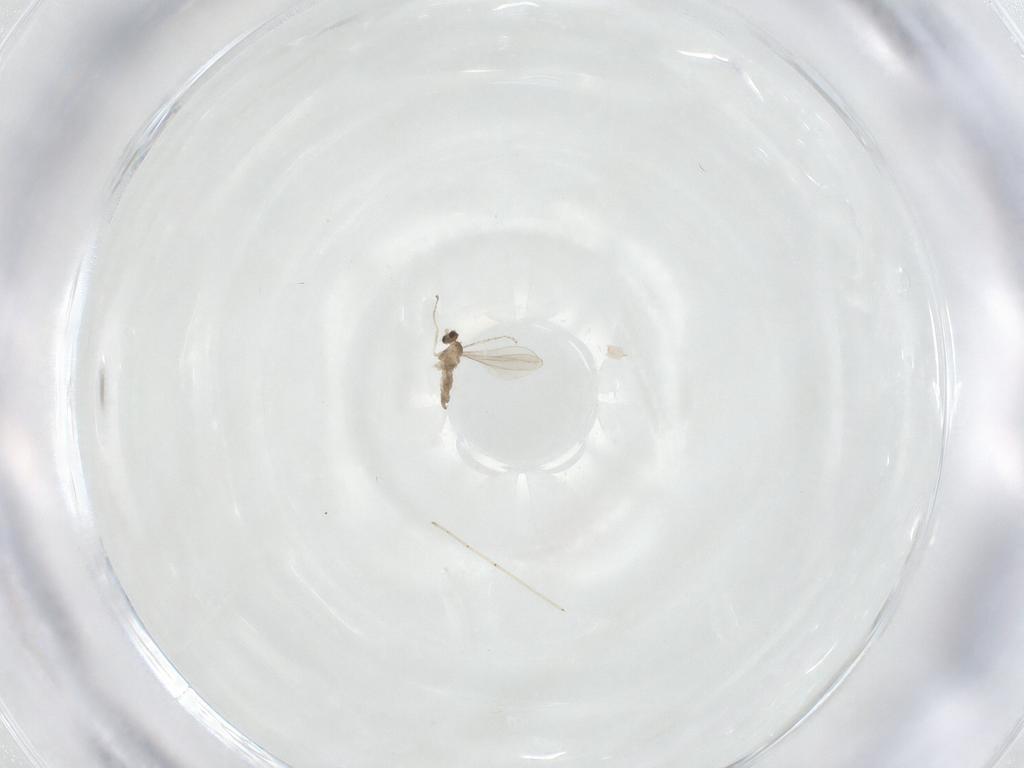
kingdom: Animalia
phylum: Arthropoda
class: Insecta
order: Diptera
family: Cecidomyiidae
